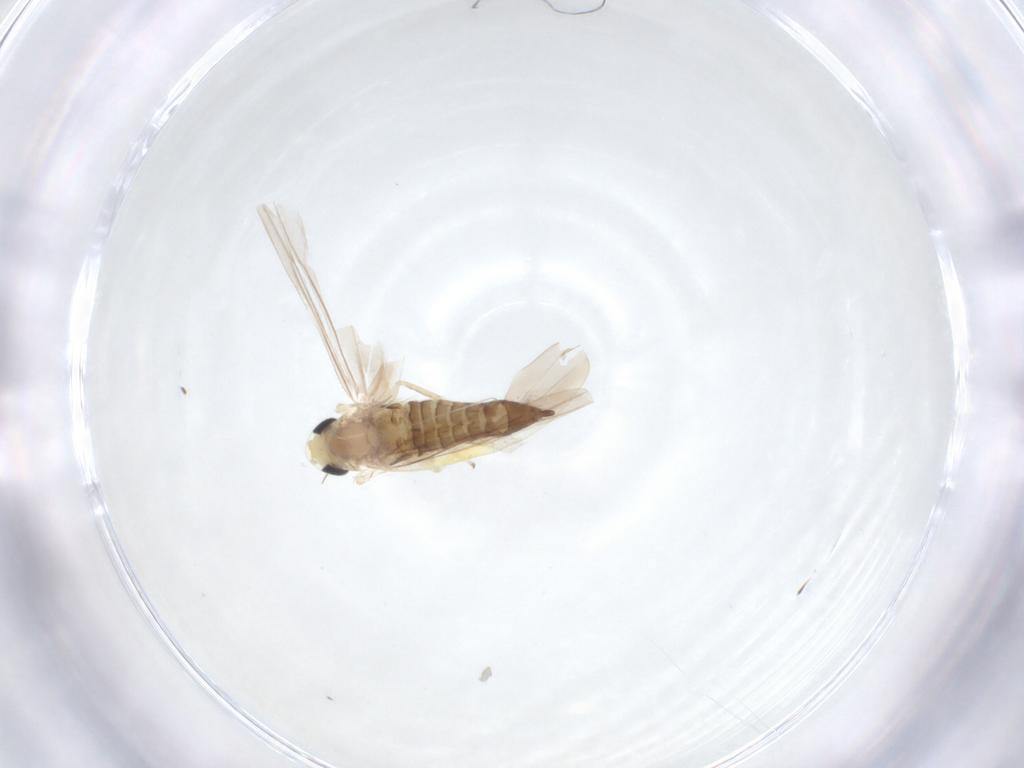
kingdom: Animalia
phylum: Arthropoda
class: Insecta
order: Hemiptera
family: Cicadellidae
